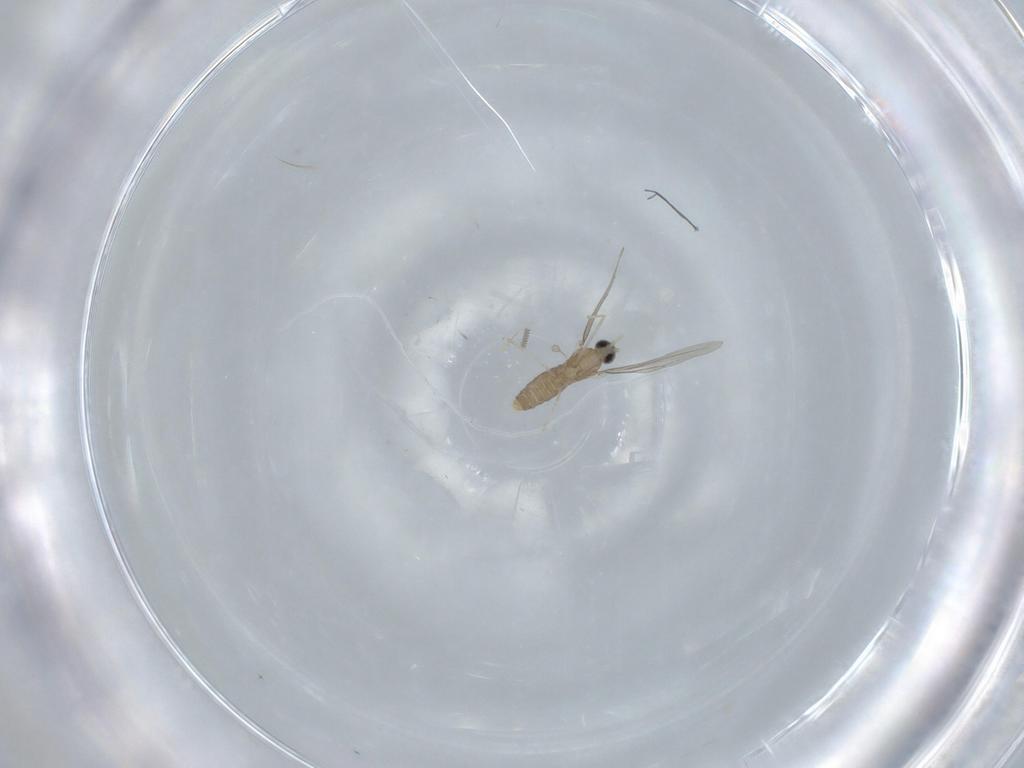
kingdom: Animalia
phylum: Arthropoda
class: Insecta
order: Diptera
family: Cecidomyiidae
